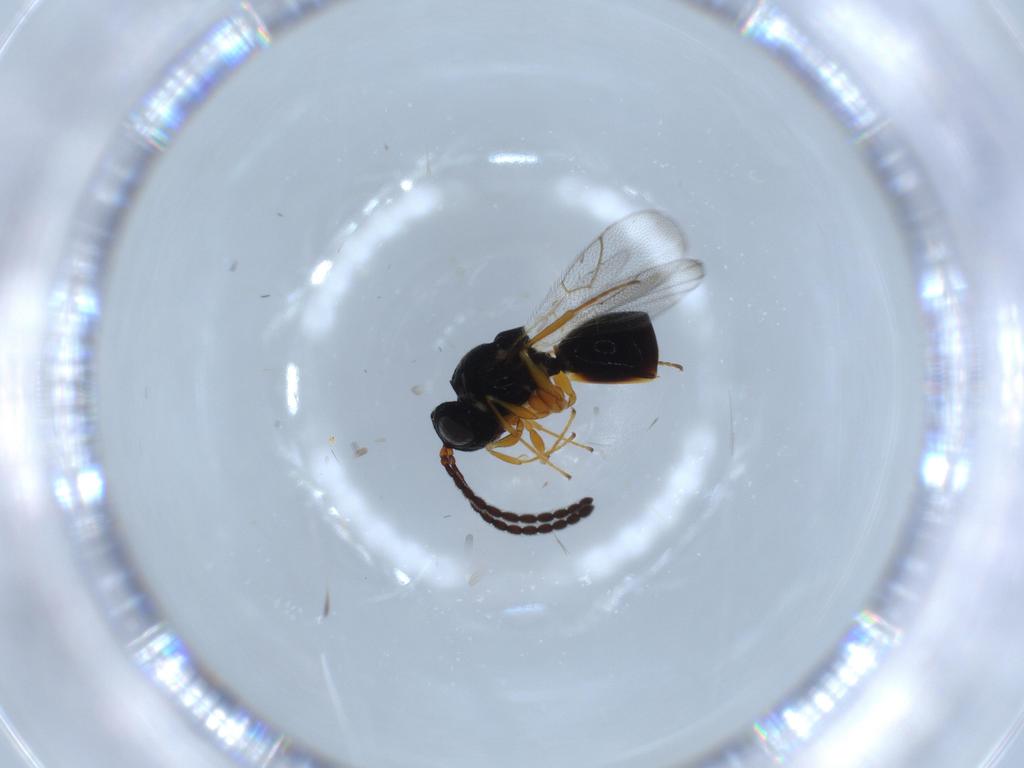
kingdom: Animalia
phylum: Arthropoda
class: Insecta
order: Hymenoptera
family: Figitidae
